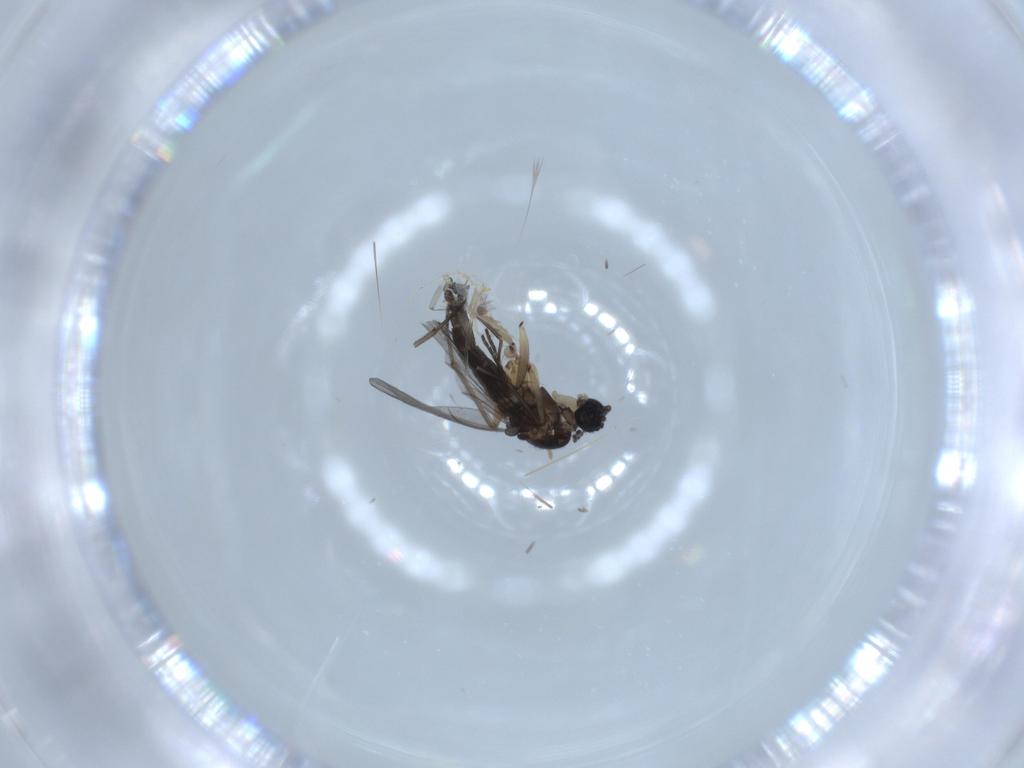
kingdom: Animalia
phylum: Arthropoda
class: Insecta
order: Diptera
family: Sciaridae
